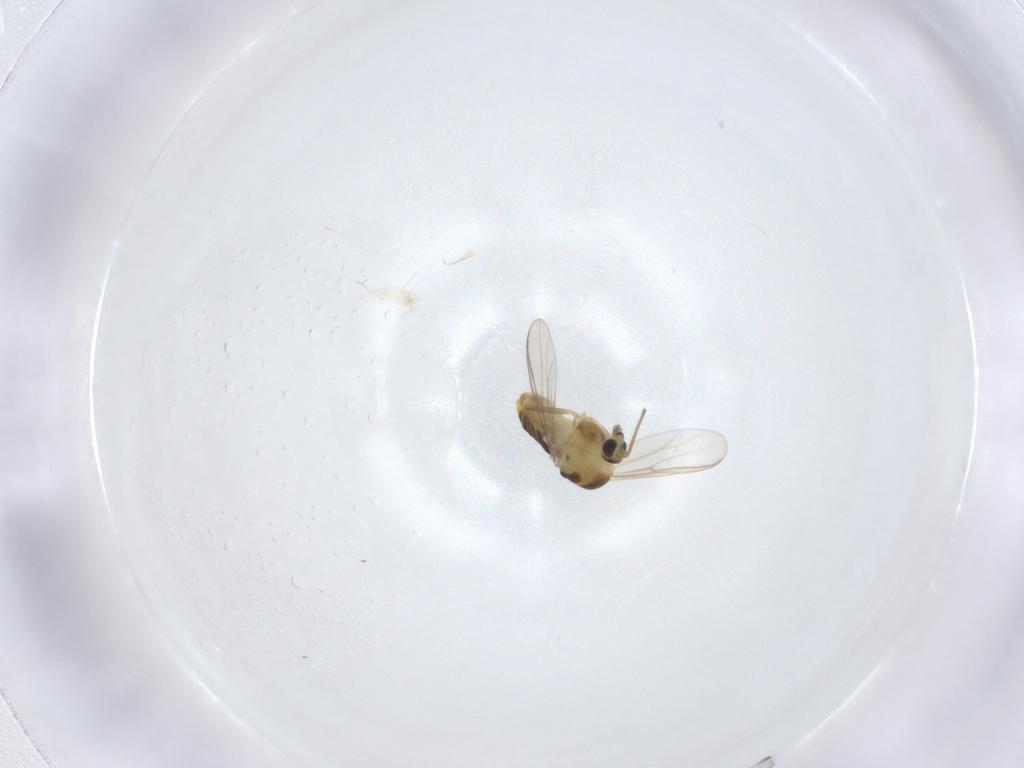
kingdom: Animalia
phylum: Arthropoda
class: Insecta
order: Diptera
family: Chironomidae
